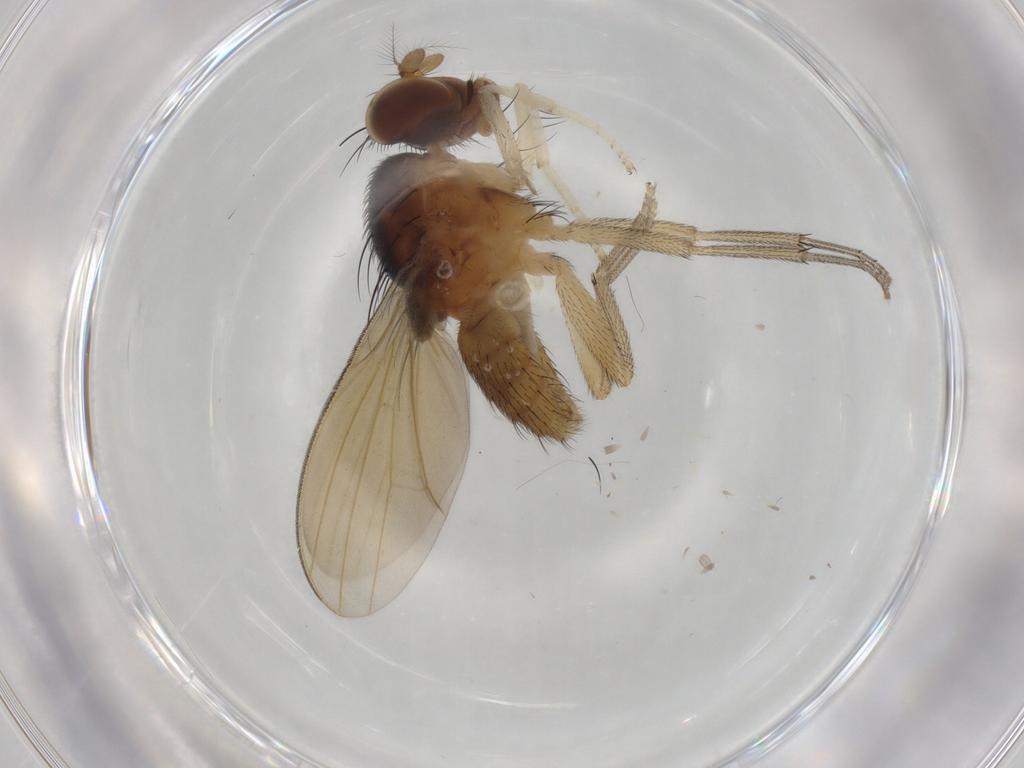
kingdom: Animalia
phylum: Arthropoda
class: Insecta
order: Diptera
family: Lauxaniidae
